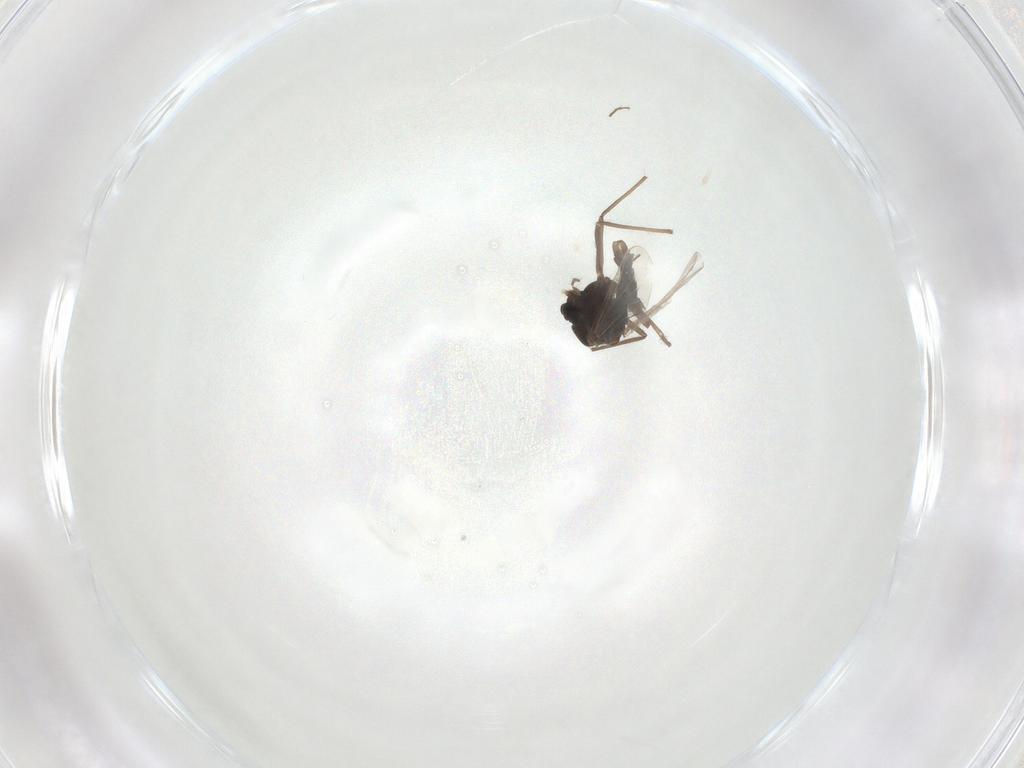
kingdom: Animalia
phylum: Arthropoda
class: Insecta
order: Diptera
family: Chironomidae
